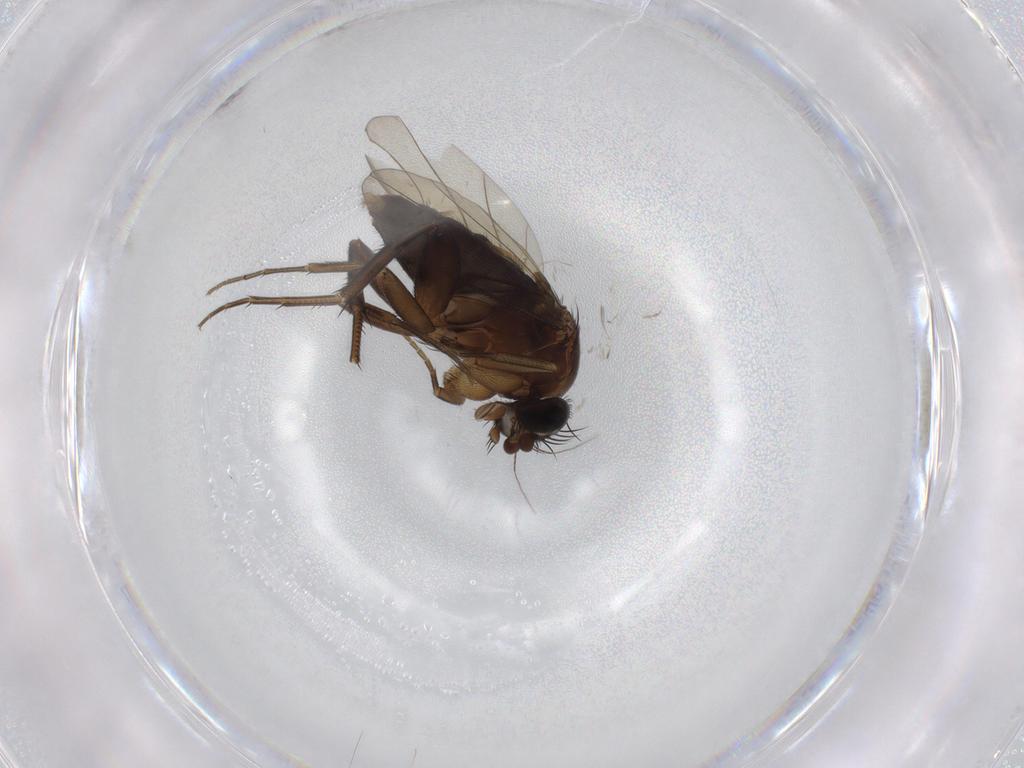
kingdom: Animalia
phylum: Arthropoda
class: Insecta
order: Diptera
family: Phoridae
